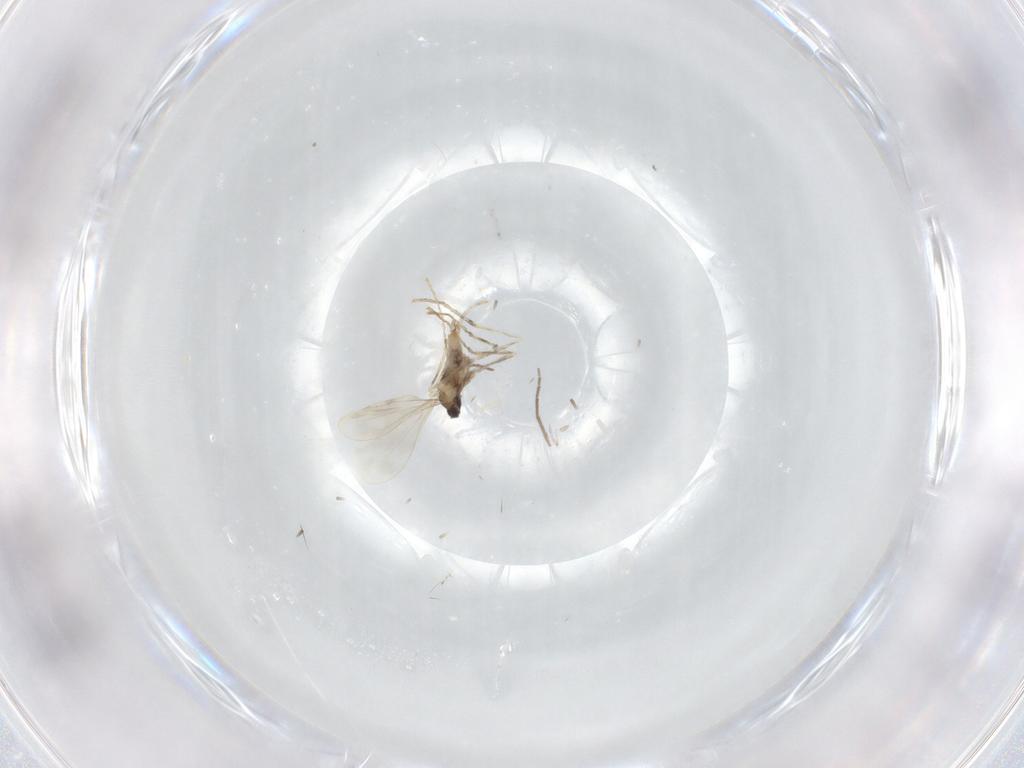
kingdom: Animalia
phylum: Arthropoda
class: Insecta
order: Diptera
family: Cecidomyiidae
